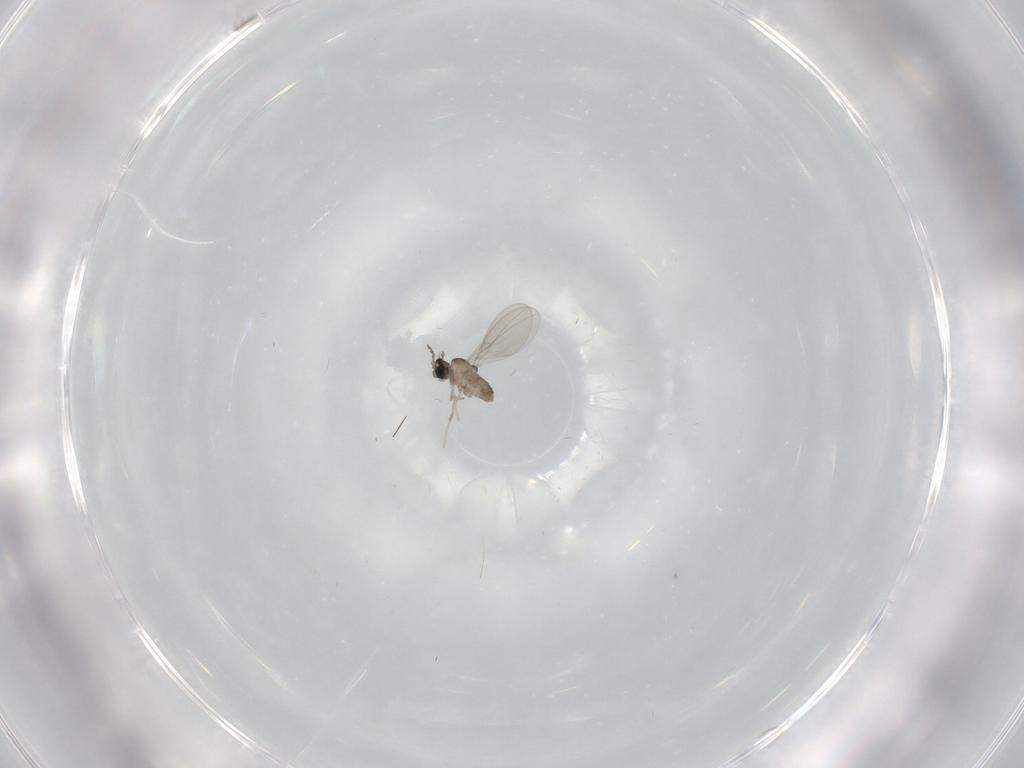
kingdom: Animalia
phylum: Arthropoda
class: Insecta
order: Diptera
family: Cecidomyiidae
